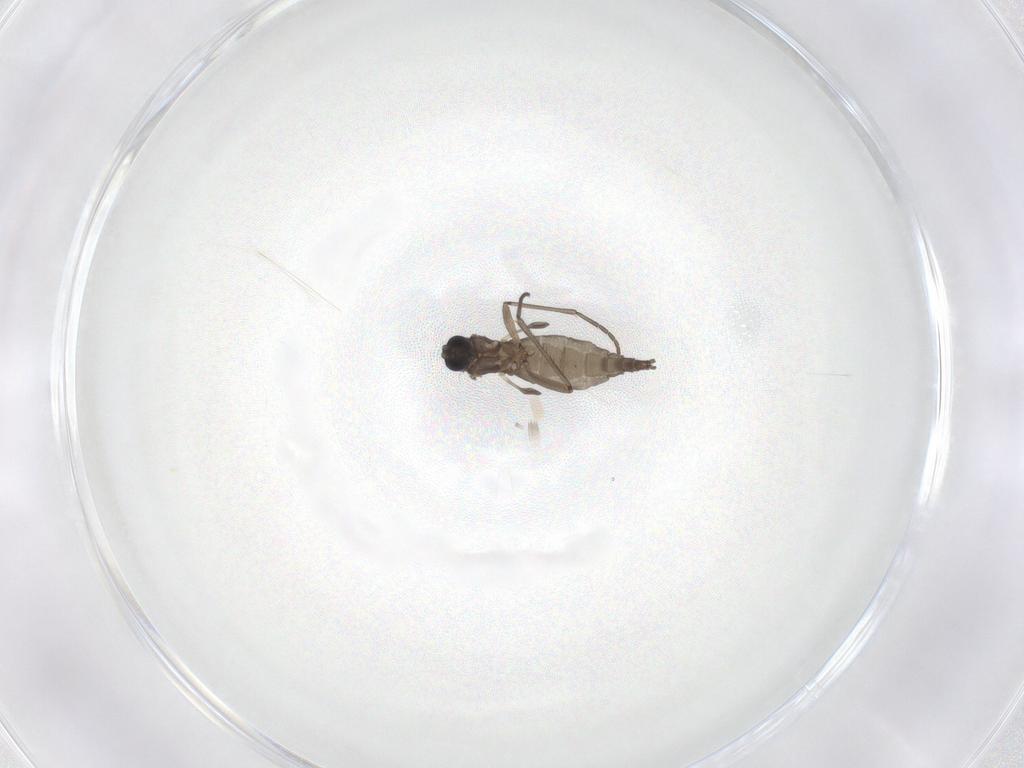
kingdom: Animalia
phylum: Arthropoda
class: Insecta
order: Diptera
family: Sciaridae
